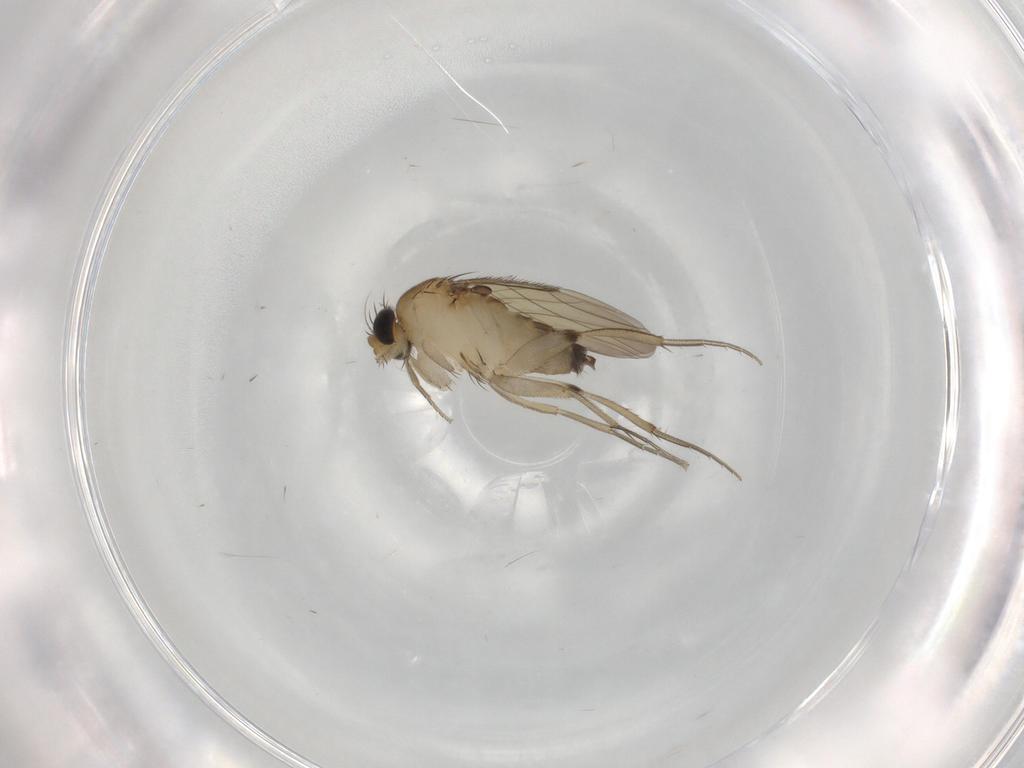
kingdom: Animalia
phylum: Arthropoda
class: Insecta
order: Diptera
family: Phoridae
